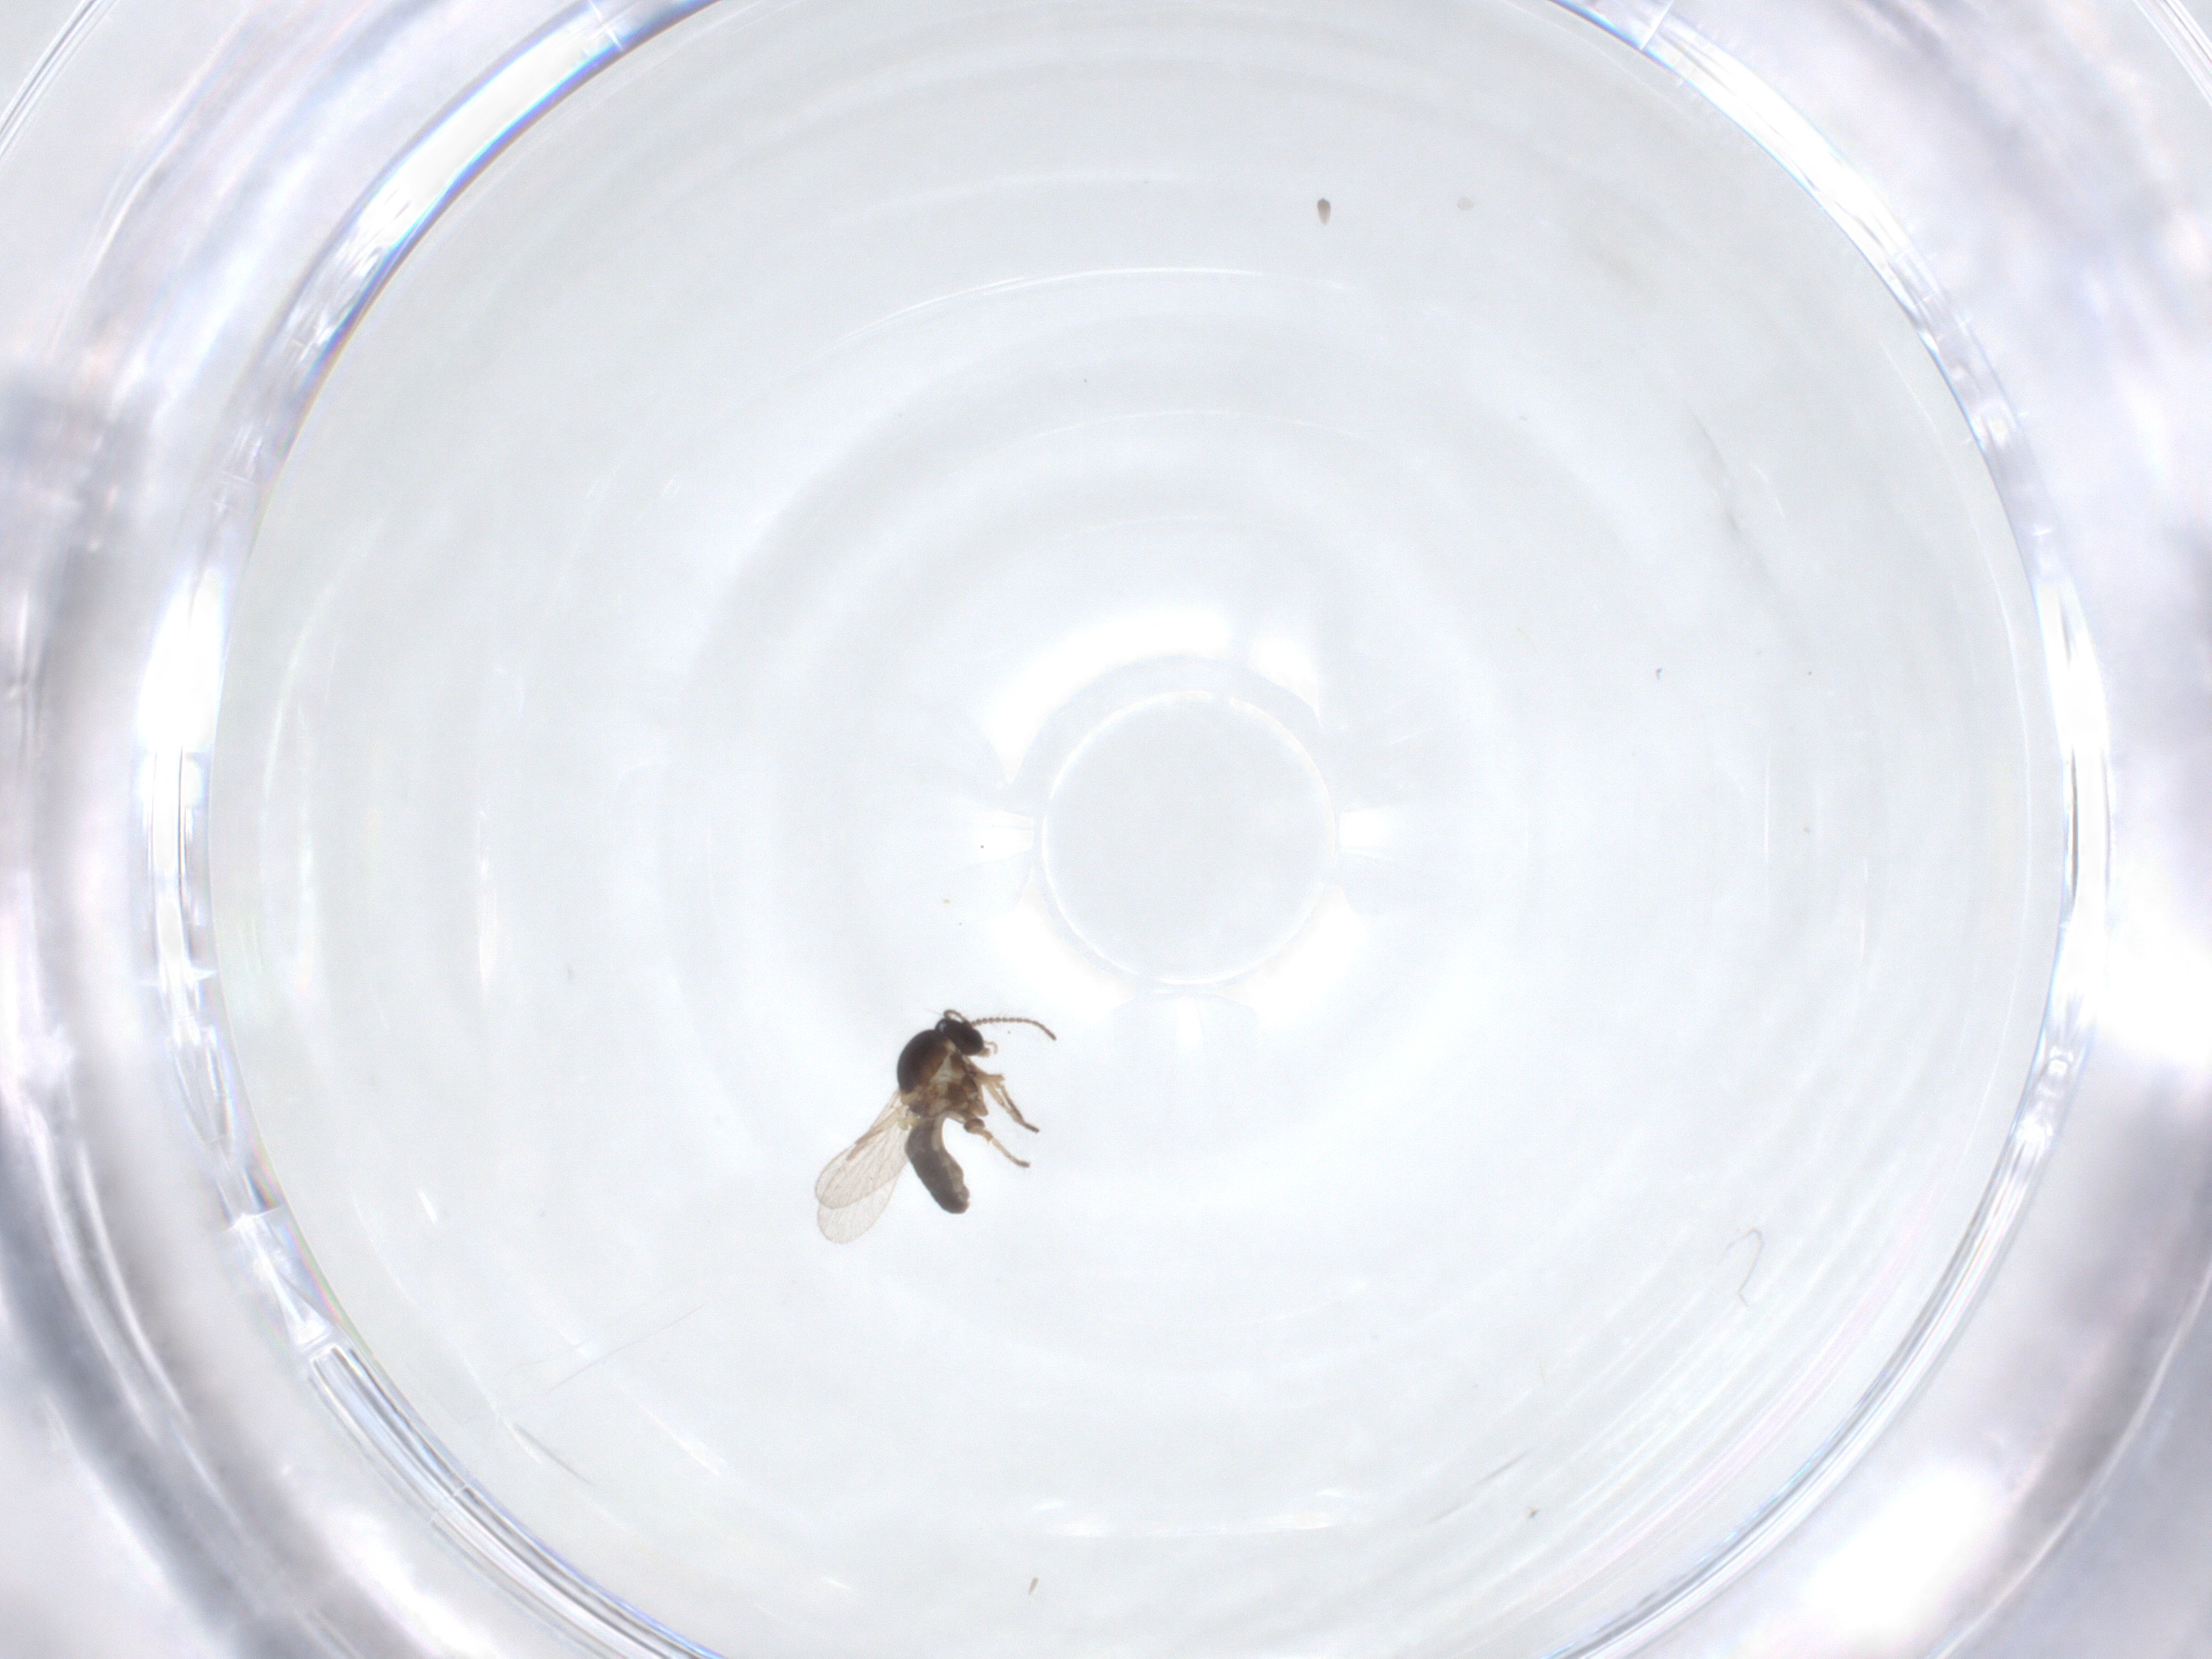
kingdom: Animalia
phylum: Arthropoda
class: Insecta
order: Diptera
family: Ceratopogonidae
